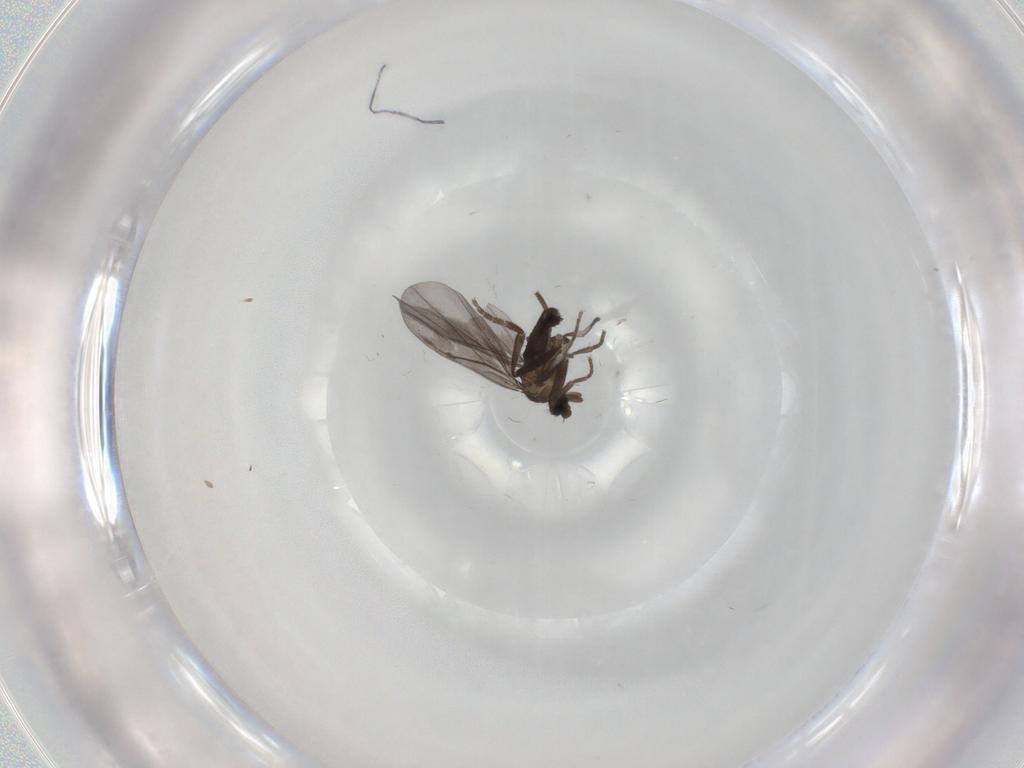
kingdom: Animalia
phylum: Arthropoda
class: Insecta
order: Diptera
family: Phoridae
